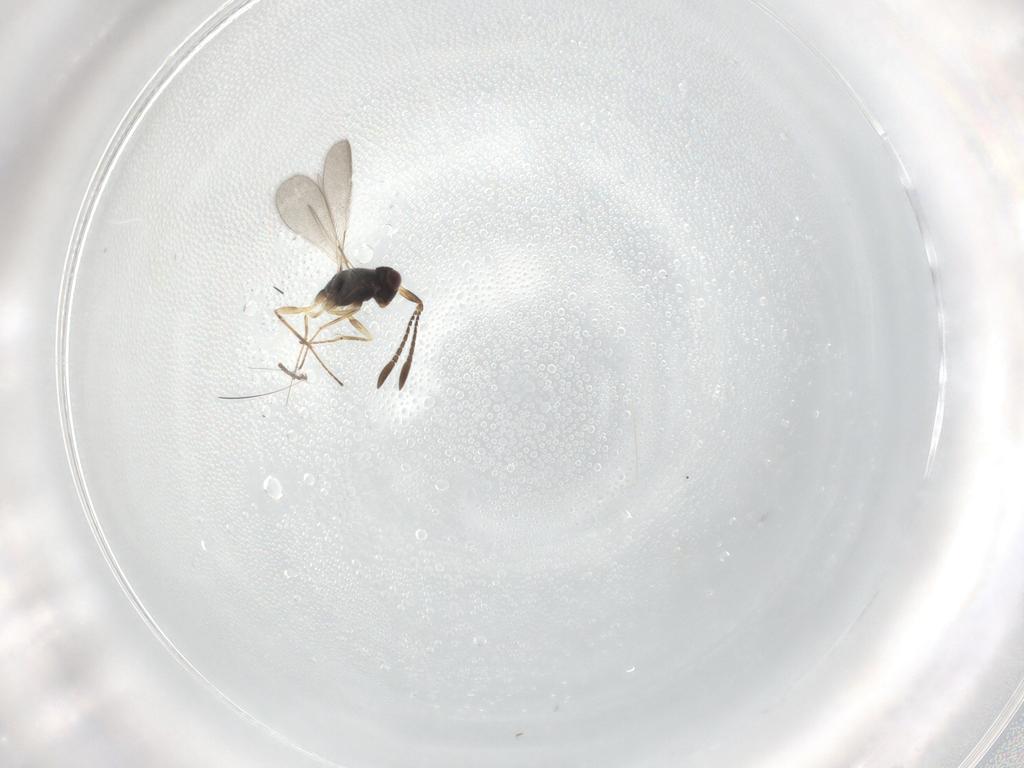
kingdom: Animalia
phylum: Arthropoda
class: Insecta
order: Hymenoptera
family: Mymaridae
